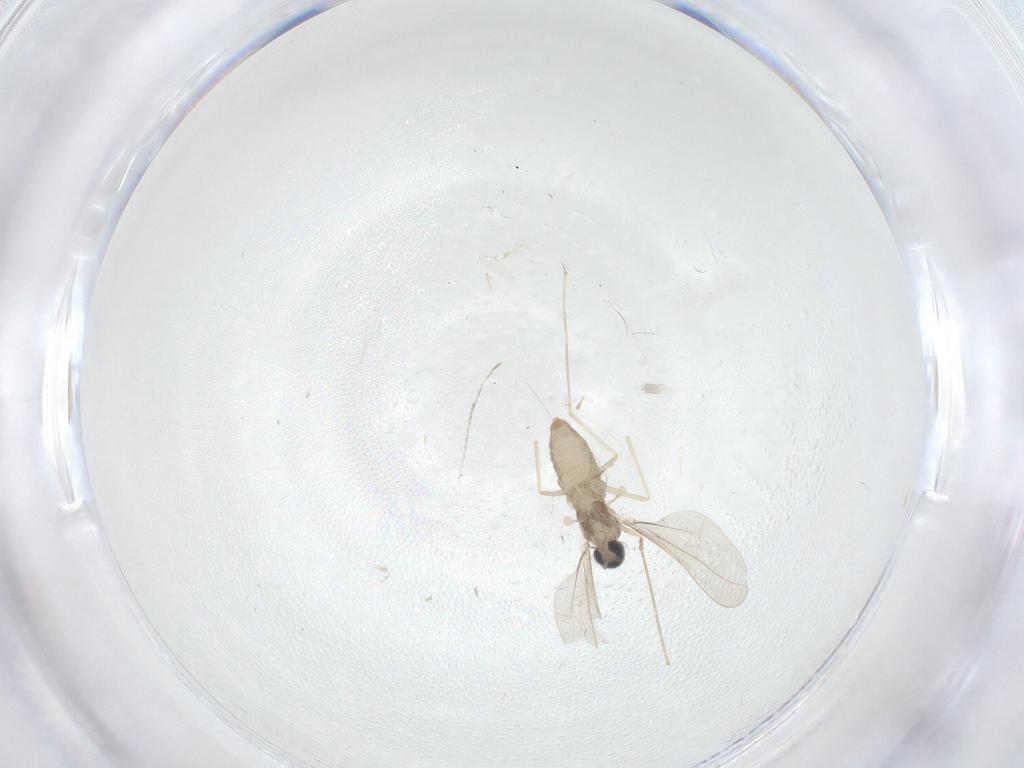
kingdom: Animalia
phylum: Arthropoda
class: Insecta
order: Diptera
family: Cecidomyiidae
